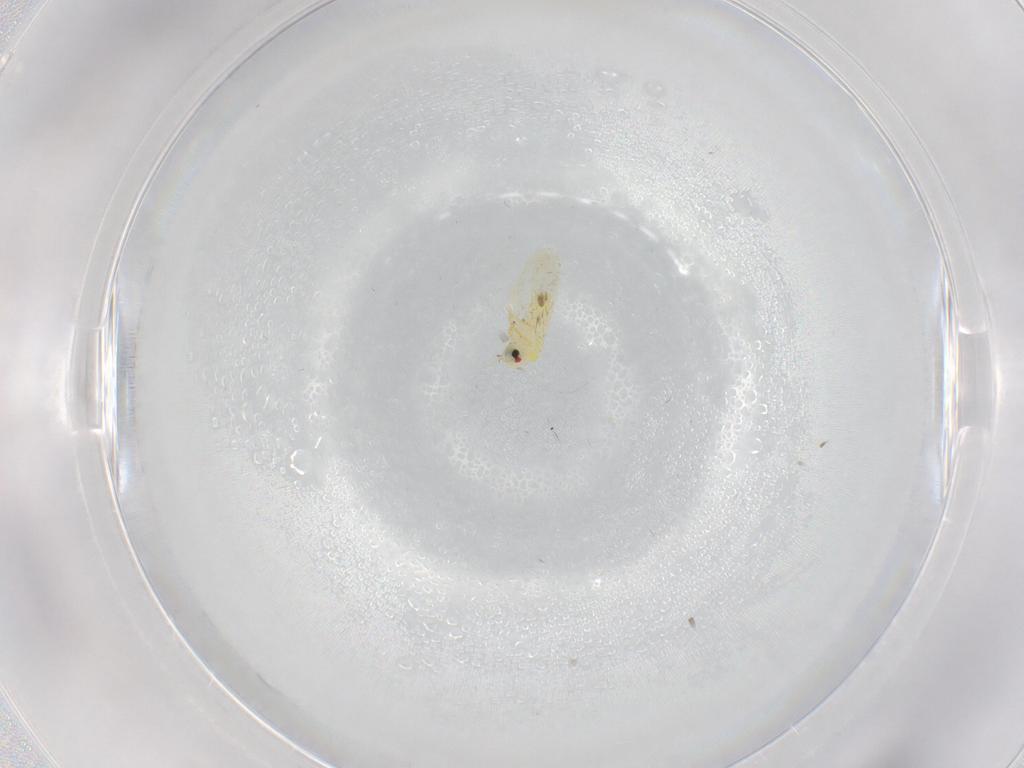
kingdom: Animalia
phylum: Arthropoda
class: Insecta
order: Hemiptera
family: Aleyrodidae
